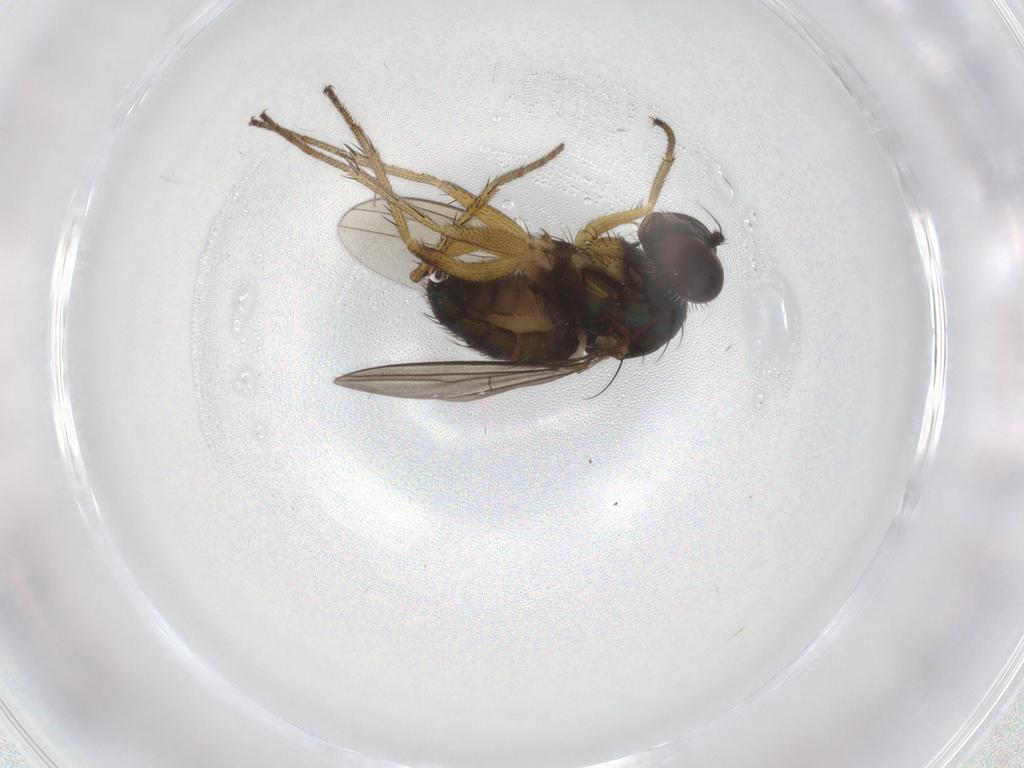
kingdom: Animalia
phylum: Arthropoda
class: Insecta
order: Diptera
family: Dolichopodidae
